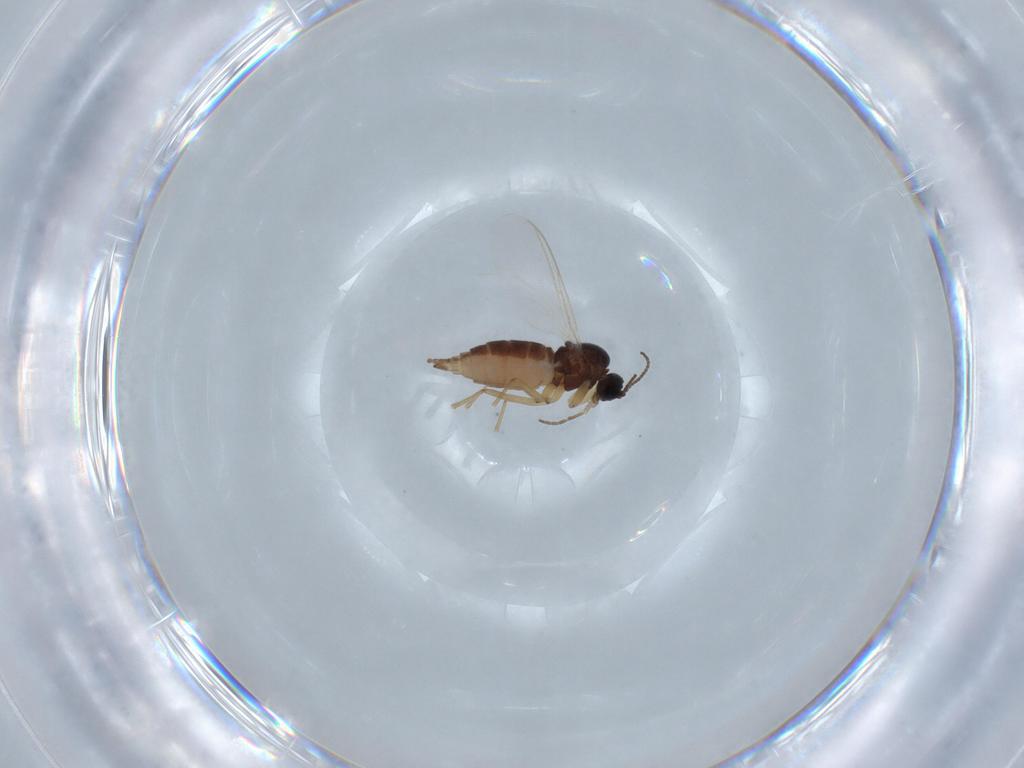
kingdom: Animalia
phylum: Arthropoda
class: Insecta
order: Diptera
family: Sciaridae
